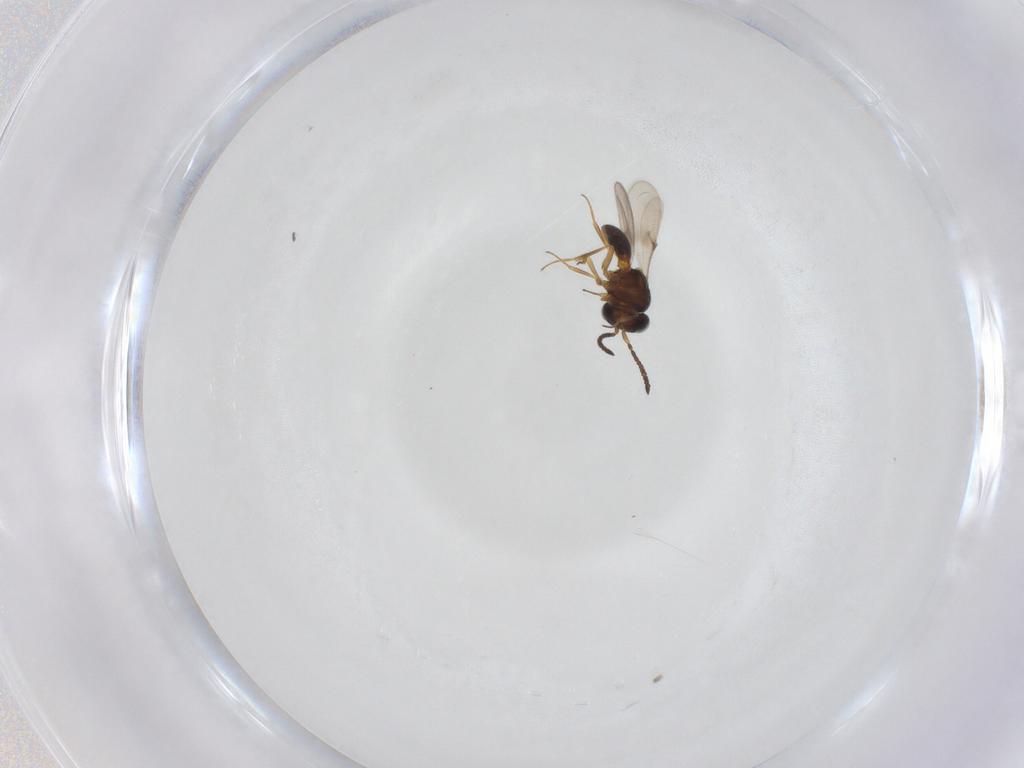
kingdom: Animalia
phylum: Arthropoda
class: Arachnida
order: Araneae
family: Pholcidae
